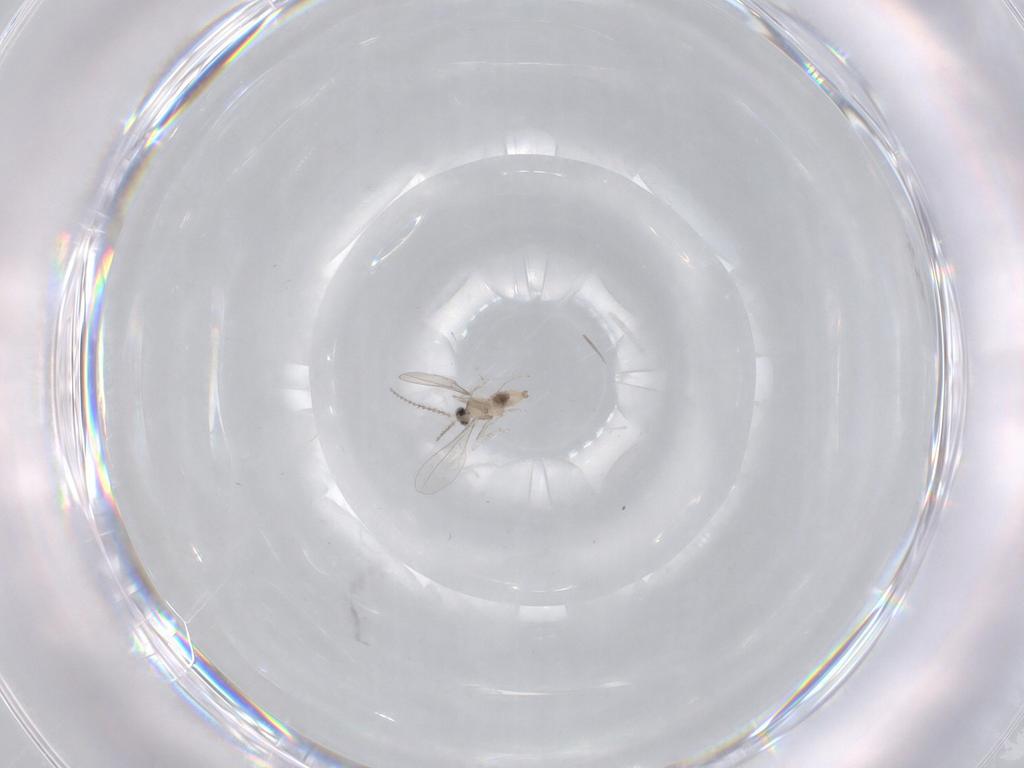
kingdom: Animalia
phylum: Arthropoda
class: Insecta
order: Diptera
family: Cecidomyiidae
